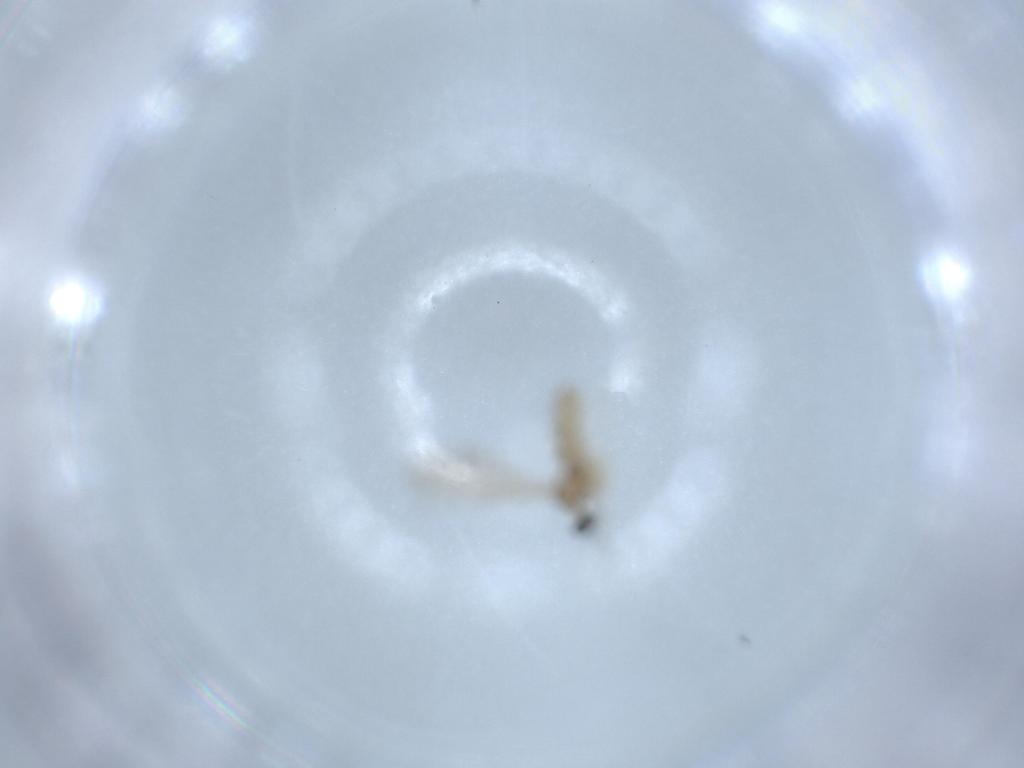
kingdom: Animalia
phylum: Arthropoda
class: Insecta
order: Diptera
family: Cecidomyiidae
